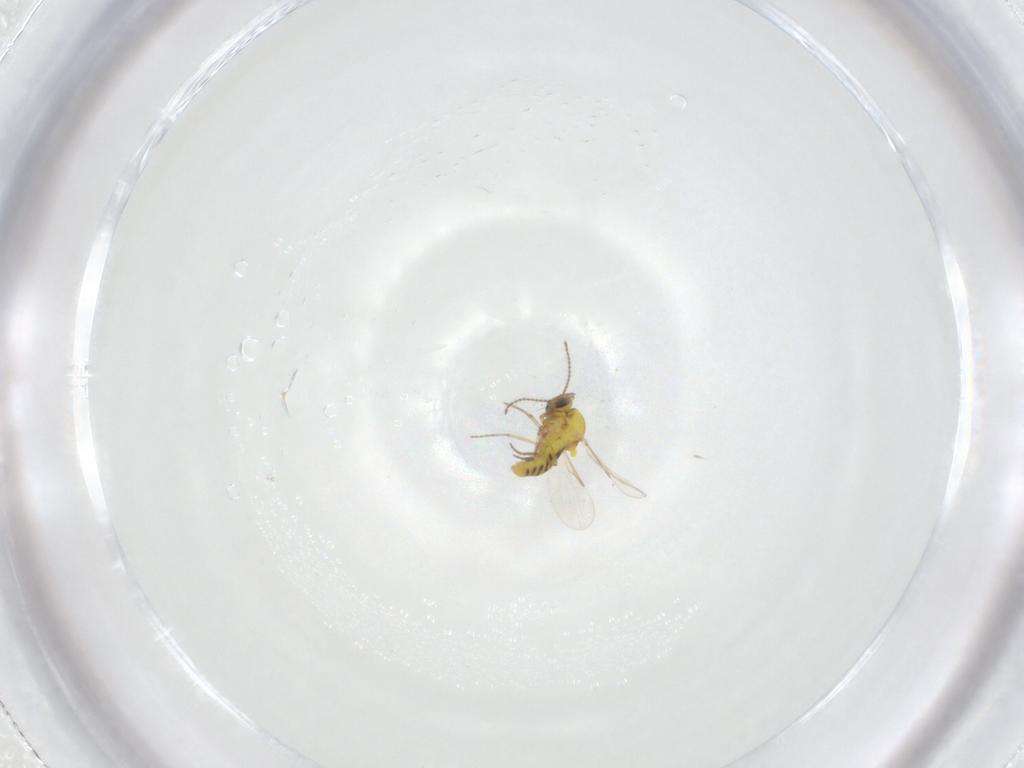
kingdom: Animalia
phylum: Arthropoda
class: Insecta
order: Diptera
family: Ceratopogonidae
